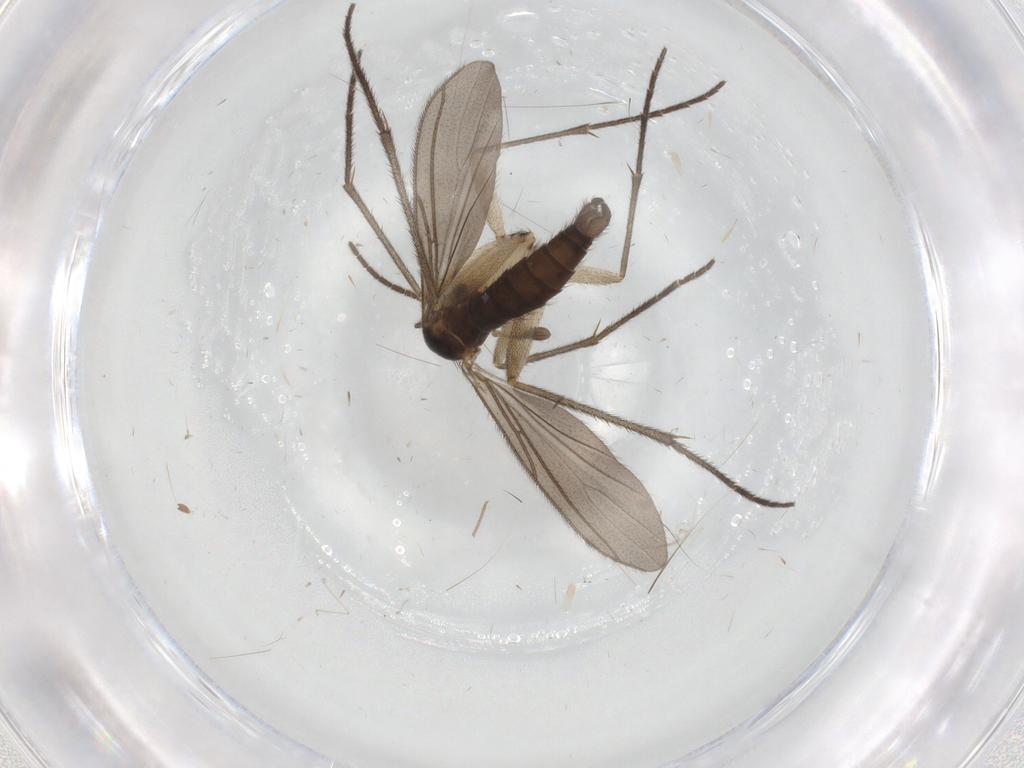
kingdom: Animalia
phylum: Arthropoda
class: Insecta
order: Diptera
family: Sciaridae
